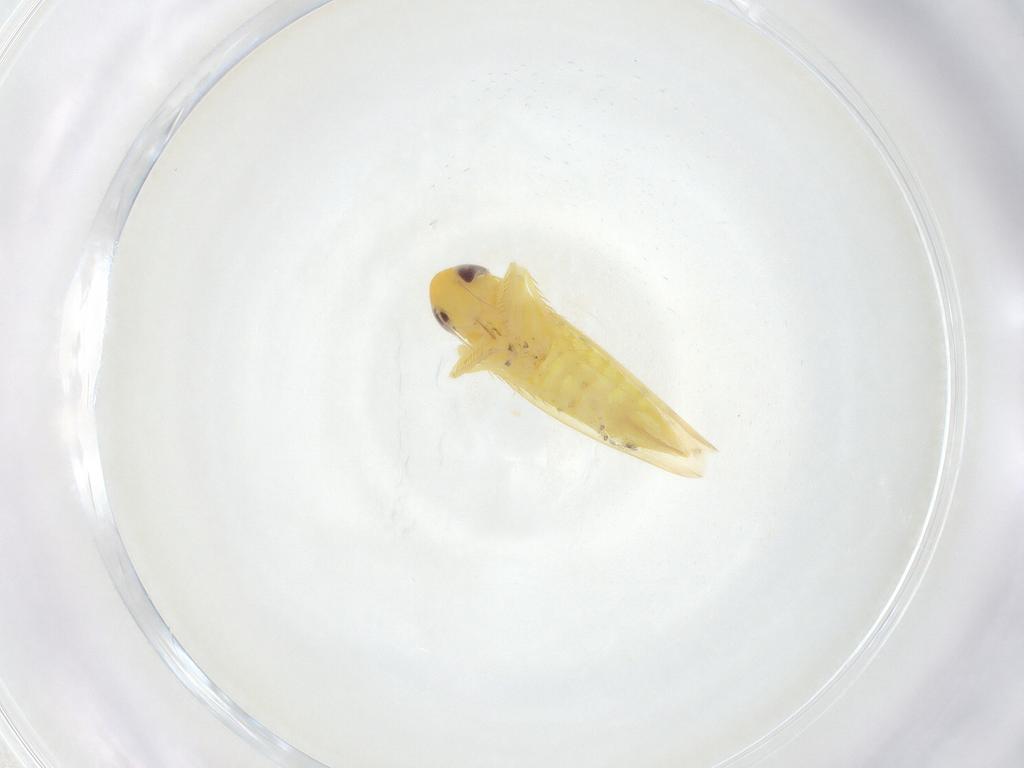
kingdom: Animalia
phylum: Arthropoda
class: Insecta
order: Hemiptera
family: Cicadellidae
